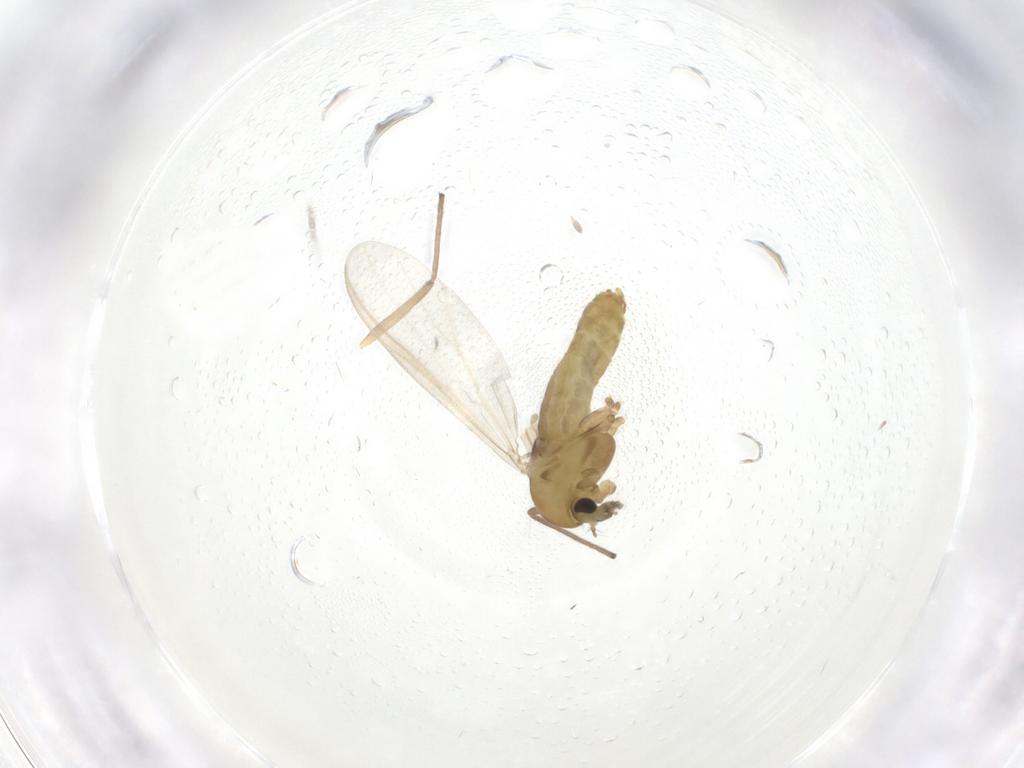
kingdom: Animalia
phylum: Arthropoda
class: Insecta
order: Diptera
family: Chironomidae
